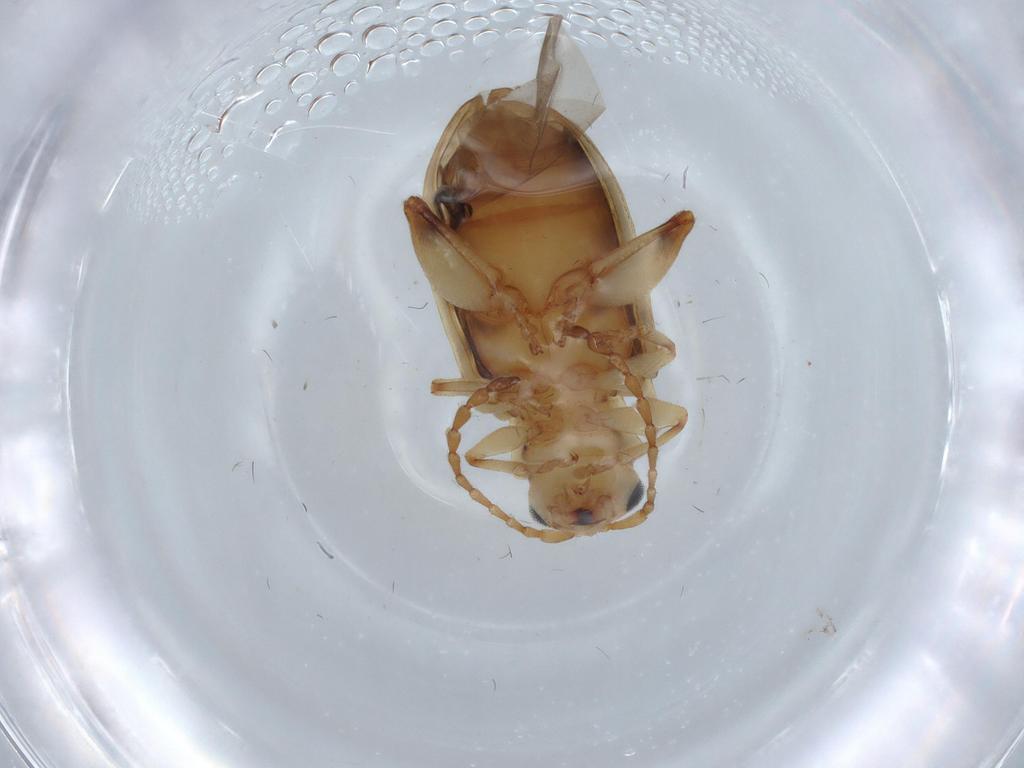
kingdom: Animalia
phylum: Arthropoda
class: Insecta
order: Coleoptera
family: Chrysomelidae
